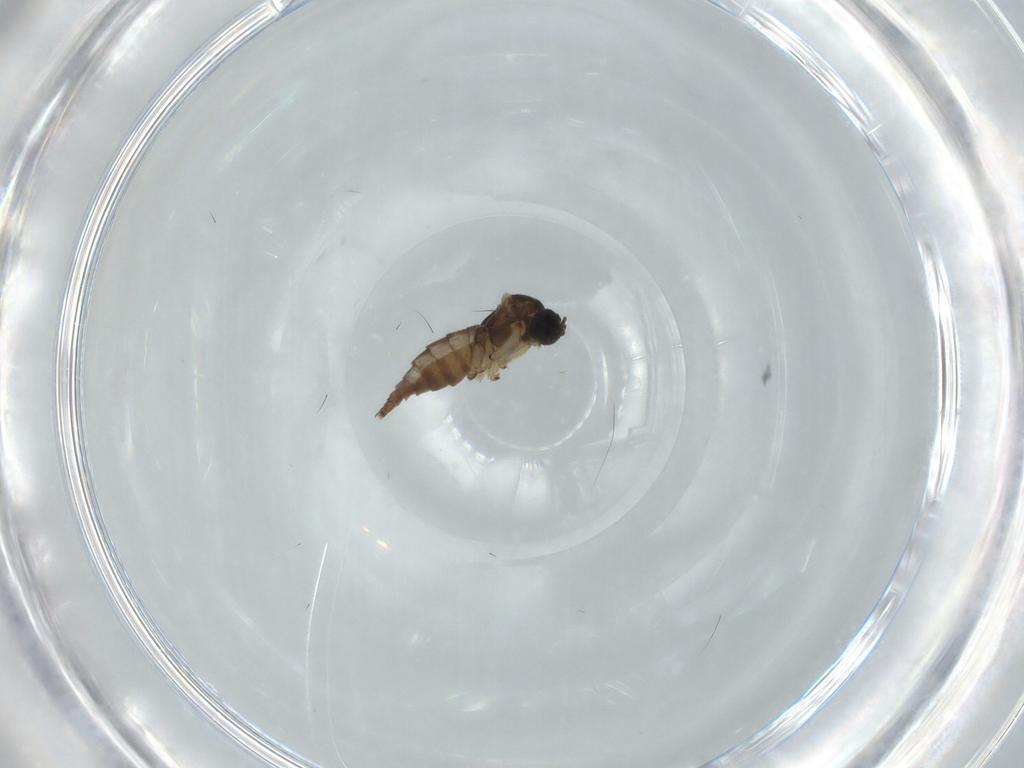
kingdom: Animalia
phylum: Arthropoda
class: Insecta
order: Diptera
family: Sciaridae
